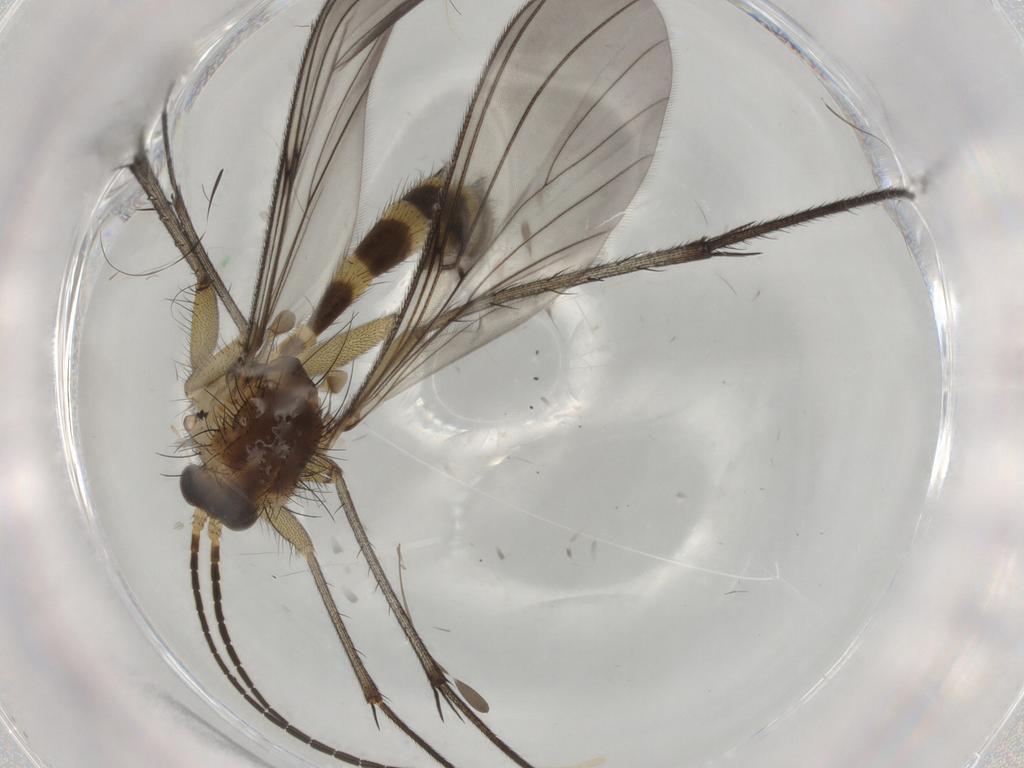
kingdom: Animalia
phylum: Arthropoda
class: Insecta
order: Diptera
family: Mycetophilidae
